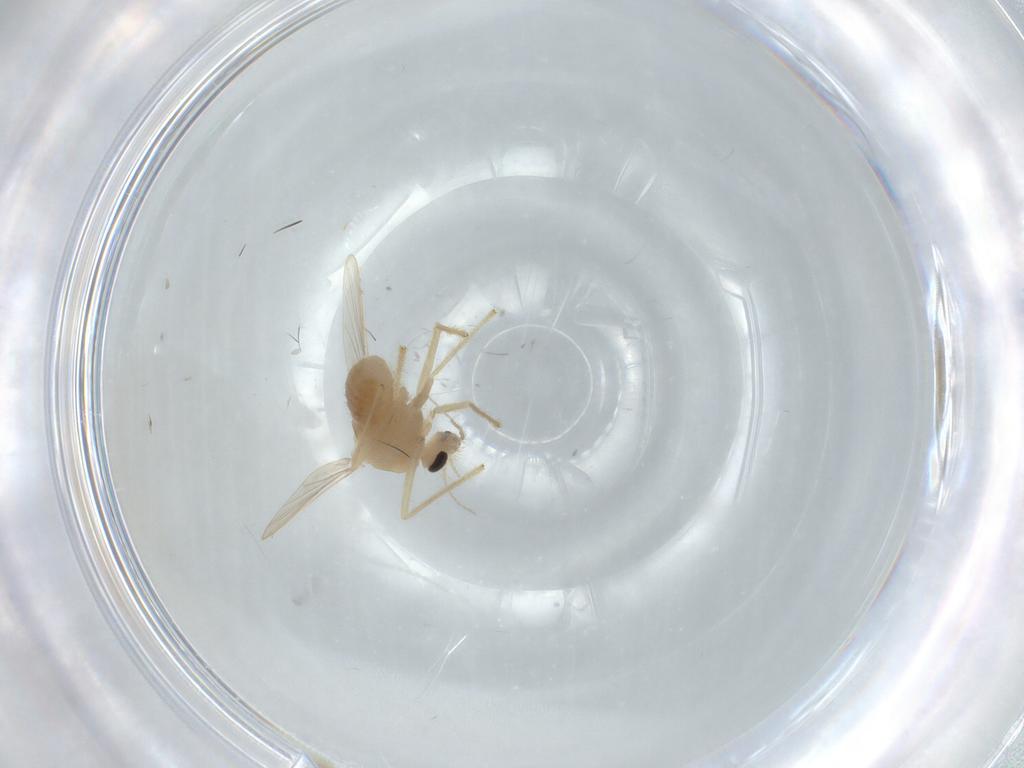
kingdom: Animalia
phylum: Arthropoda
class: Insecta
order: Diptera
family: Chironomidae
